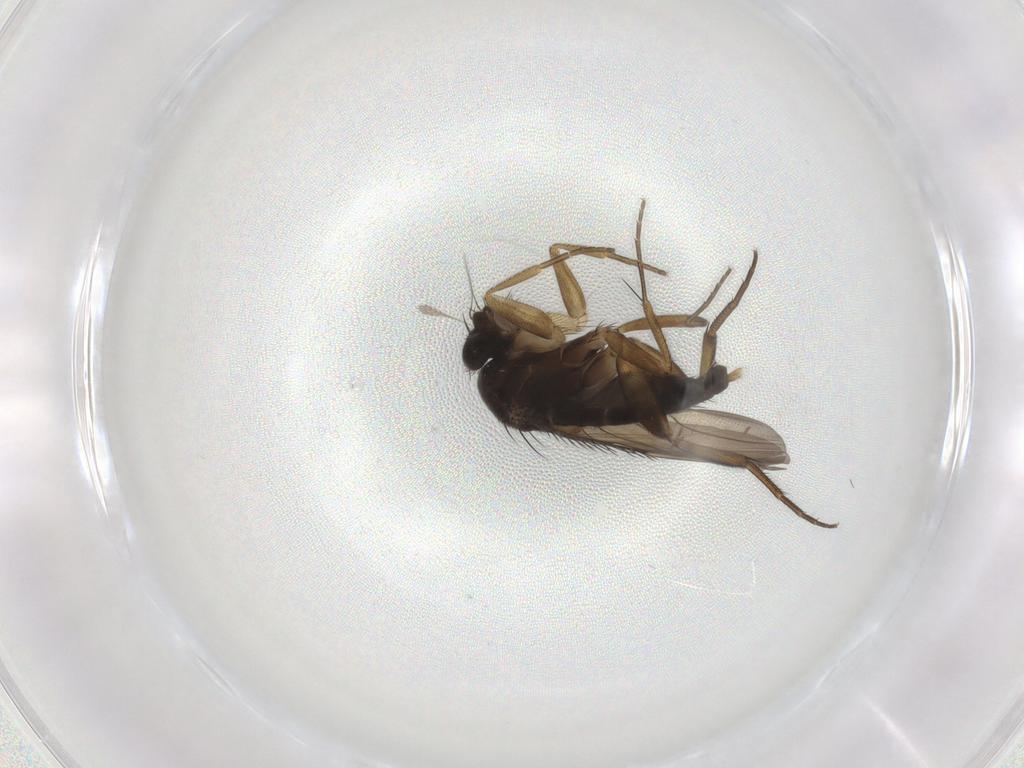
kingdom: Animalia
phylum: Arthropoda
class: Insecta
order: Diptera
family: Phoridae
